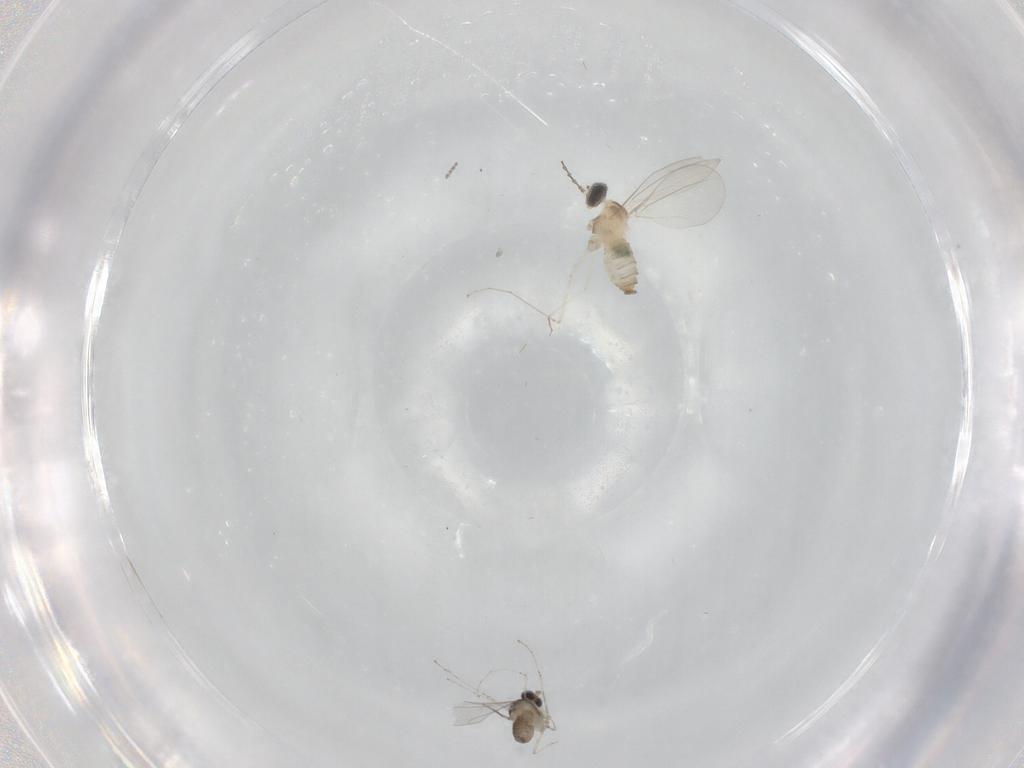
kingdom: Animalia
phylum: Arthropoda
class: Insecta
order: Diptera
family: Cecidomyiidae
